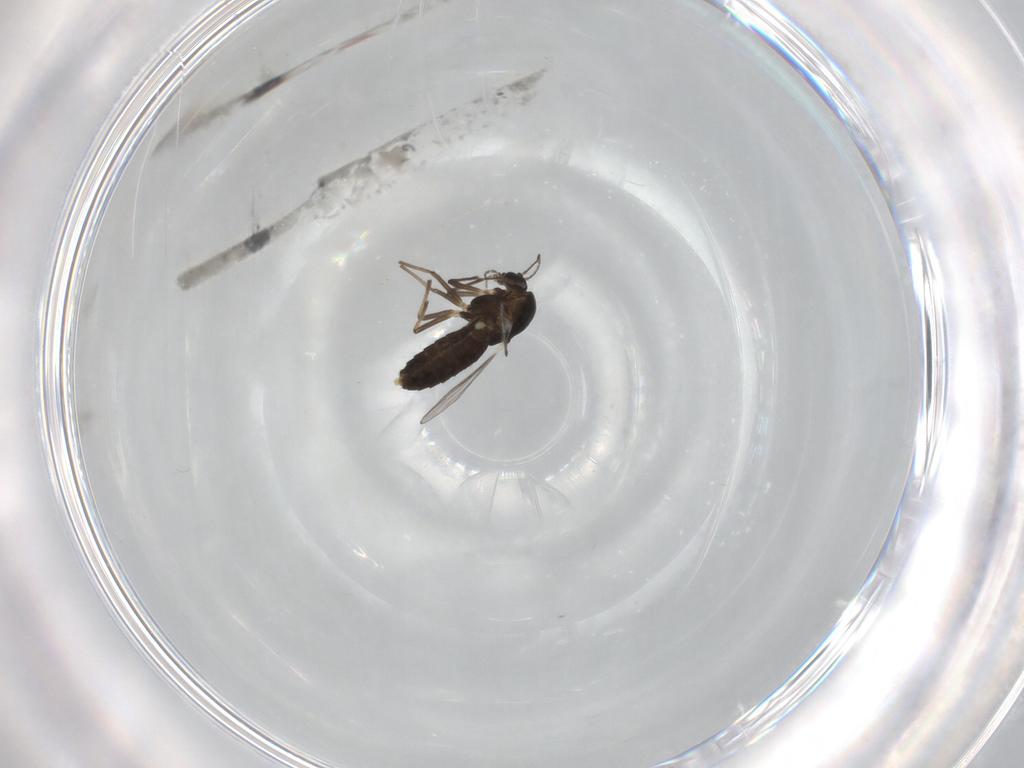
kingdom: Animalia
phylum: Arthropoda
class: Insecta
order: Diptera
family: Chironomidae
